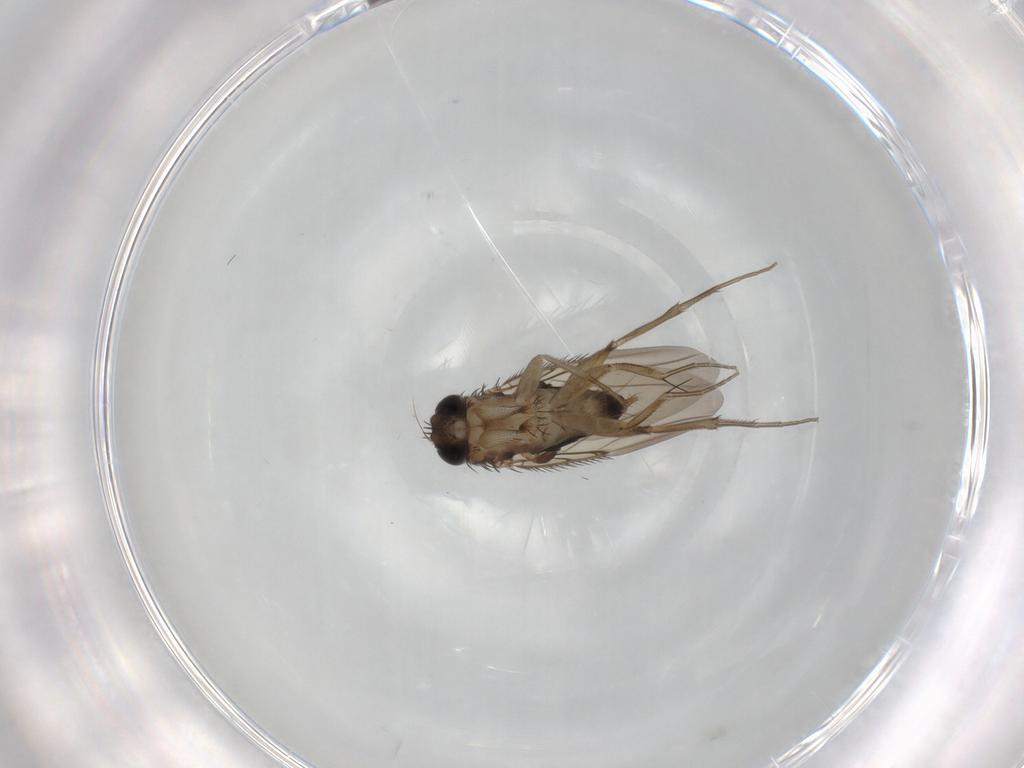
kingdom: Animalia
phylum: Arthropoda
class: Insecta
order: Diptera
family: Phoridae
